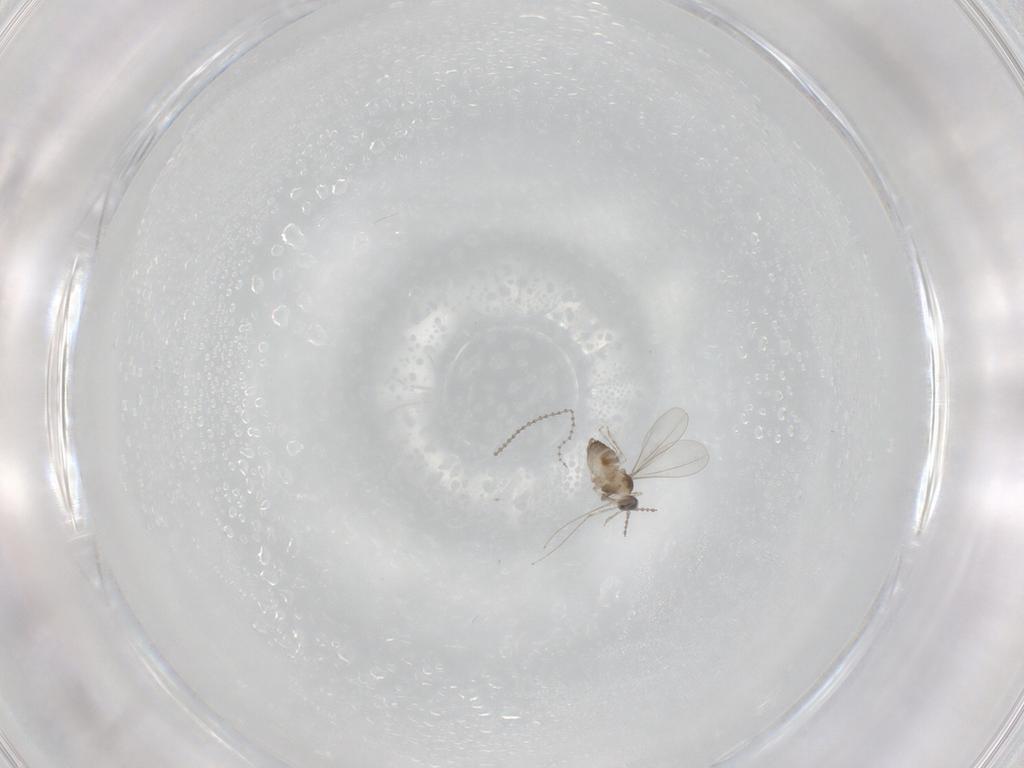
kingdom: Animalia
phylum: Arthropoda
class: Insecta
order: Diptera
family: Cecidomyiidae
